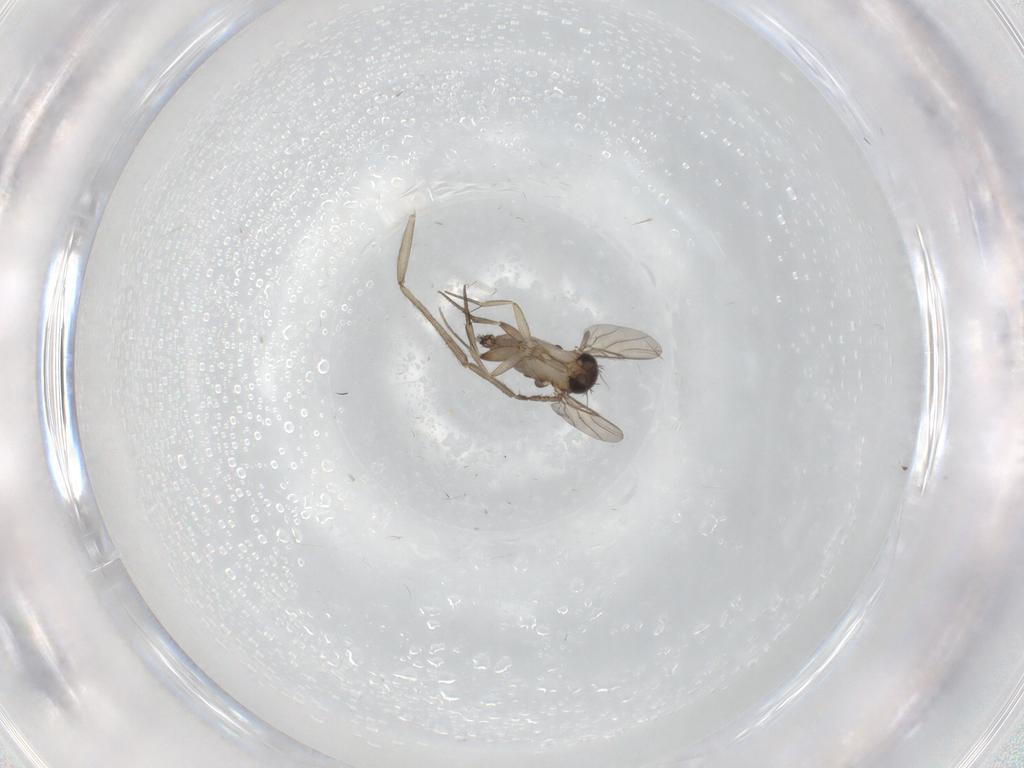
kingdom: Animalia
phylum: Arthropoda
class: Insecta
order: Diptera
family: Phoridae
